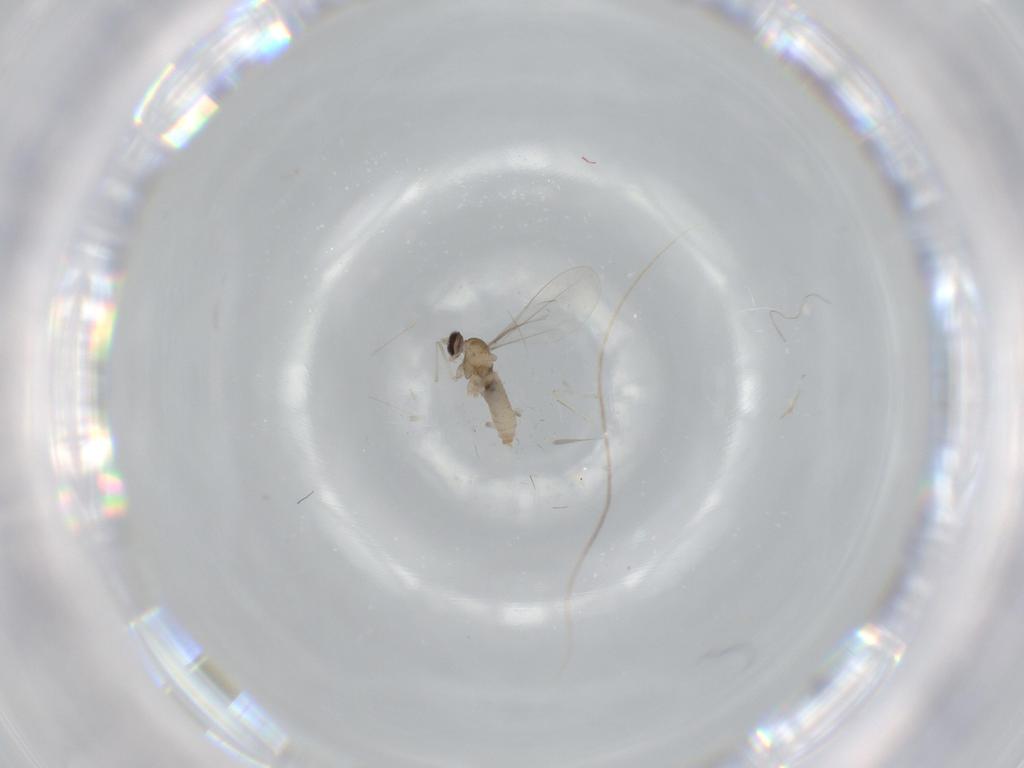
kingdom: Animalia
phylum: Arthropoda
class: Insecta
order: Diptera
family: Cecidomyiidae
